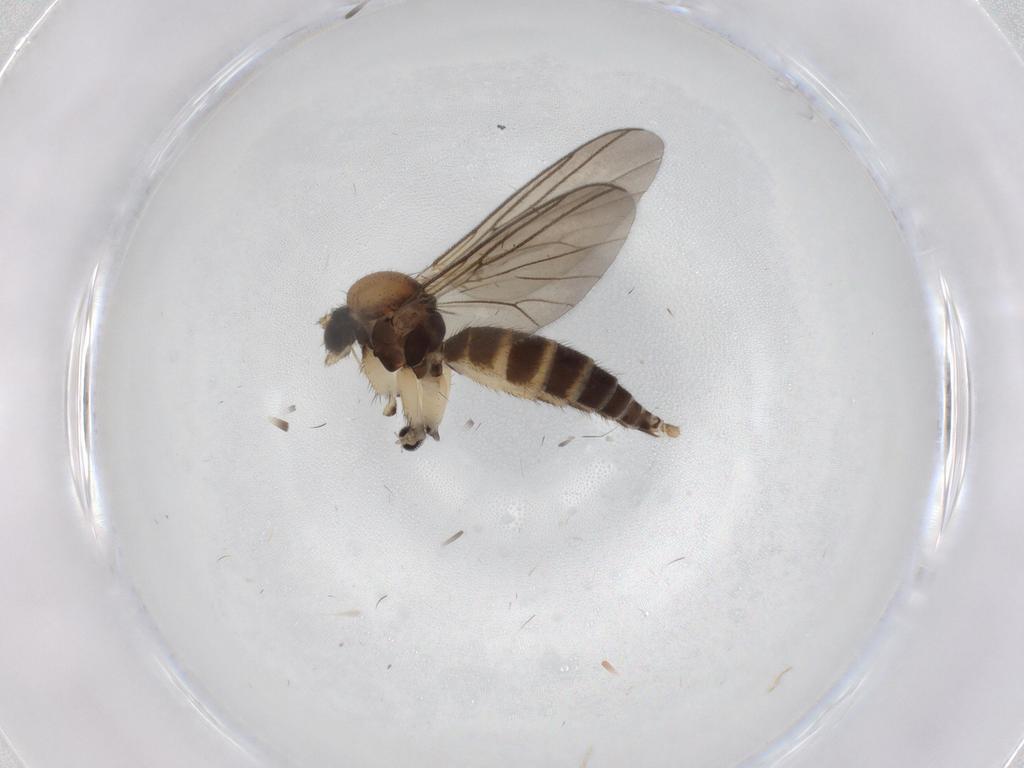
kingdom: Animalia
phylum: Arthropoda
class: Insecta
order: Diptera
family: Cecidomyiidae
